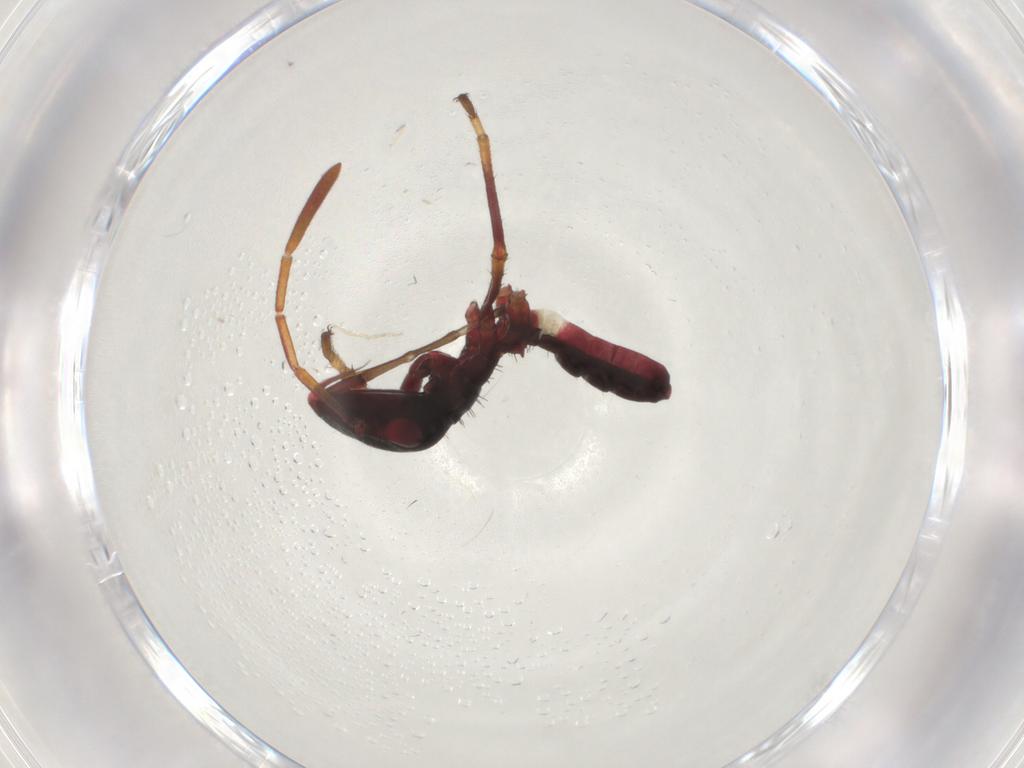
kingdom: Animalia
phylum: Arthropoda
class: Insecta
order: Hemiptera
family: Alydidae
